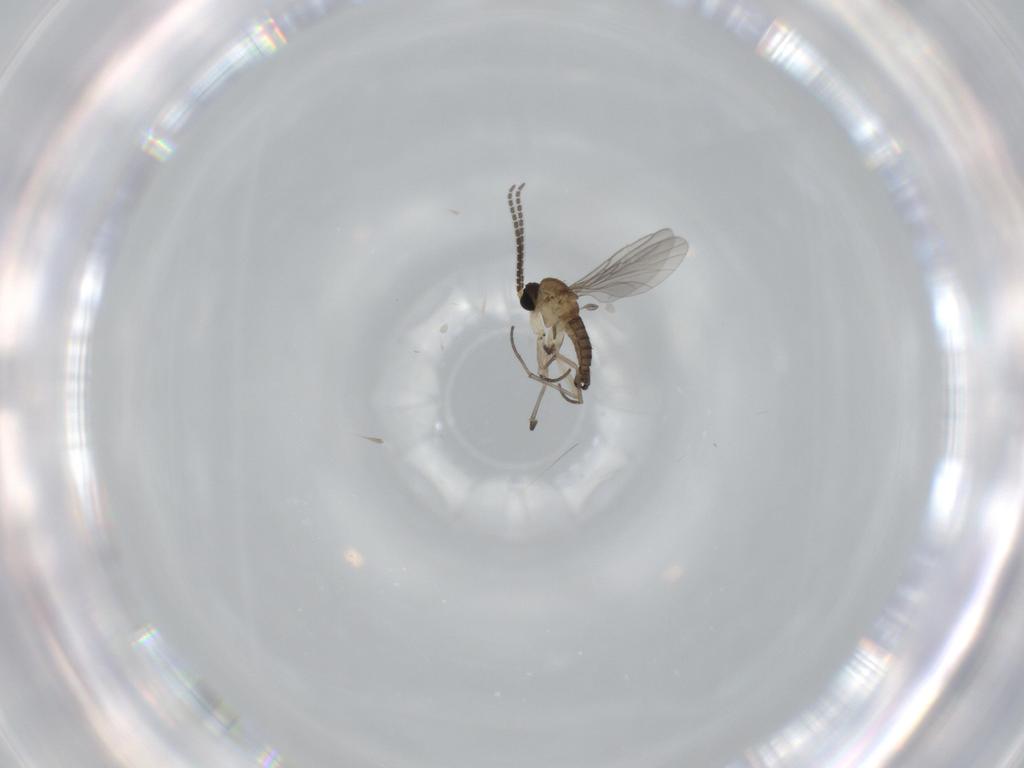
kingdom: Animalia
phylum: Arthropoda
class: Insecta
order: Diptera
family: Sciaridae
